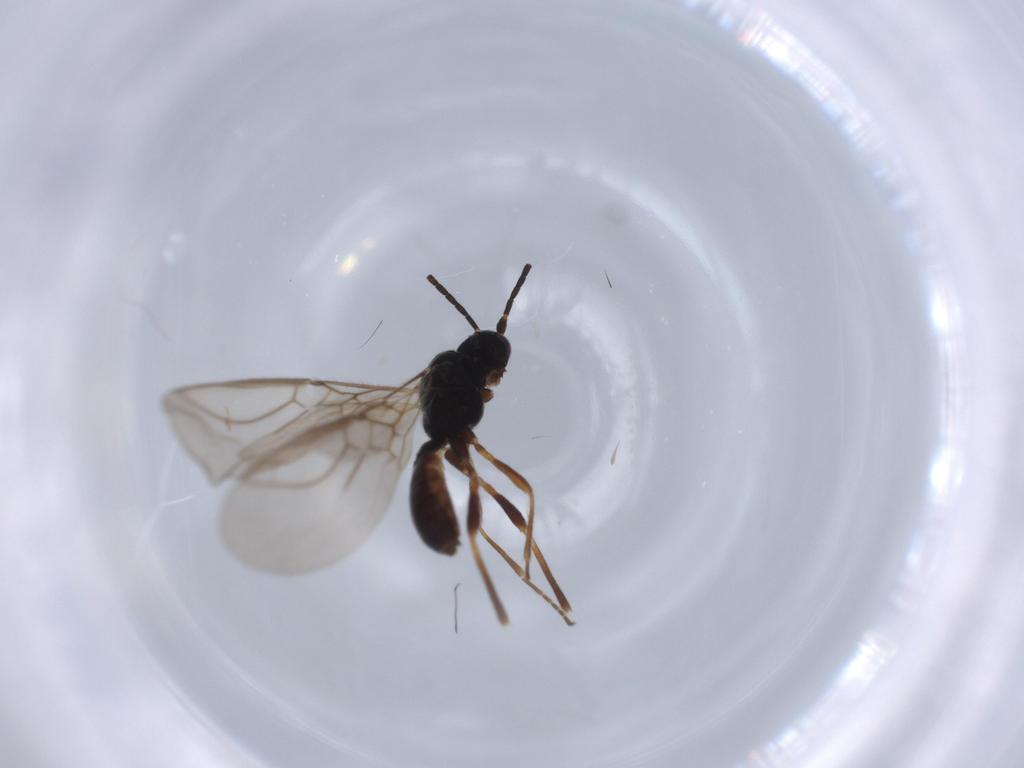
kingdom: Animalia
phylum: Arthropoda
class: Insecta
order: Hymenoptera
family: Braconidae
